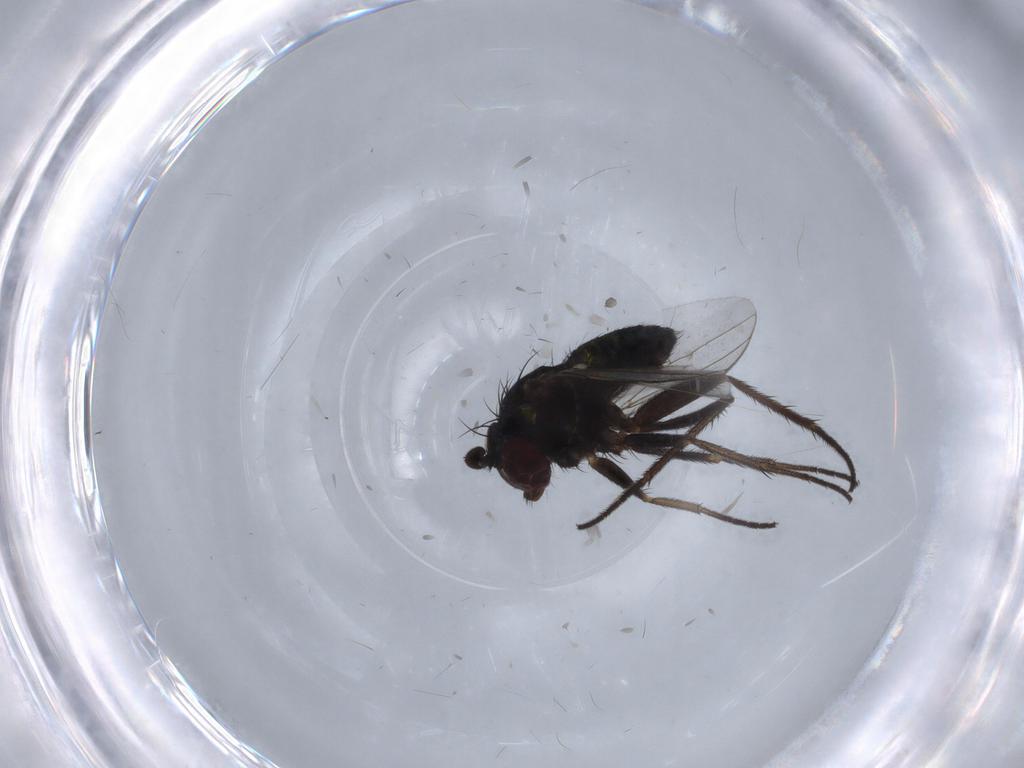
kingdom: Animalia
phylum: Arthropoda
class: Insecta
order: Diptera
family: Dolichopodidae
